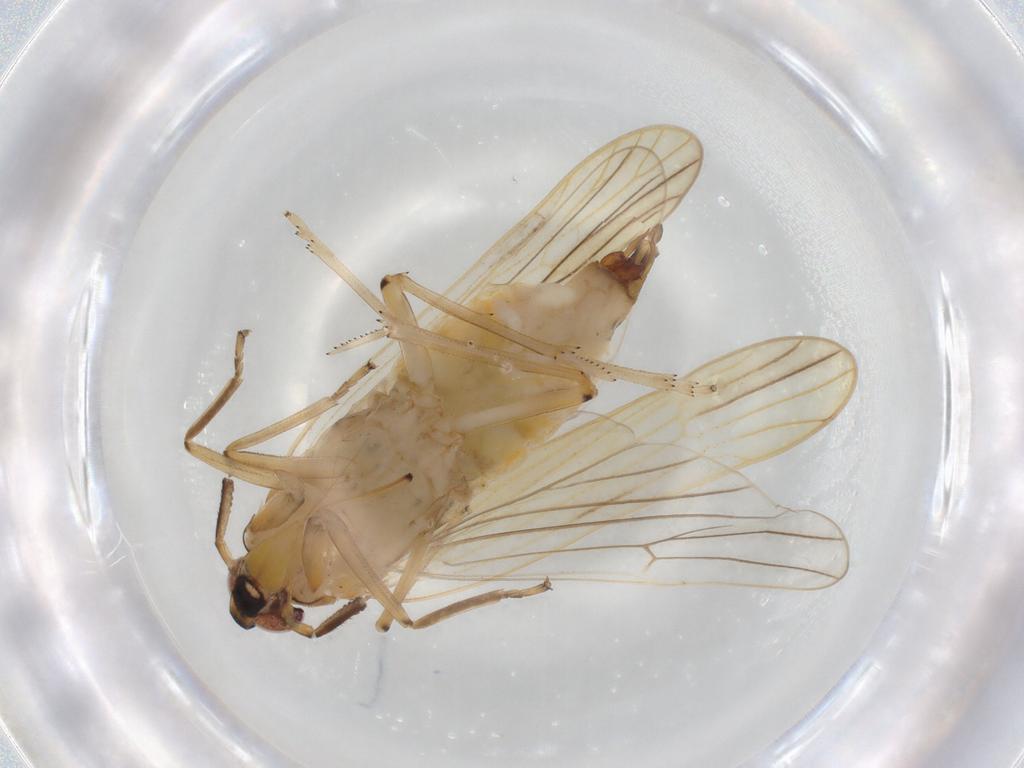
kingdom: Animalia
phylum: Arthropoda
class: Insecta
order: Hemiptera
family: Delphacidae
